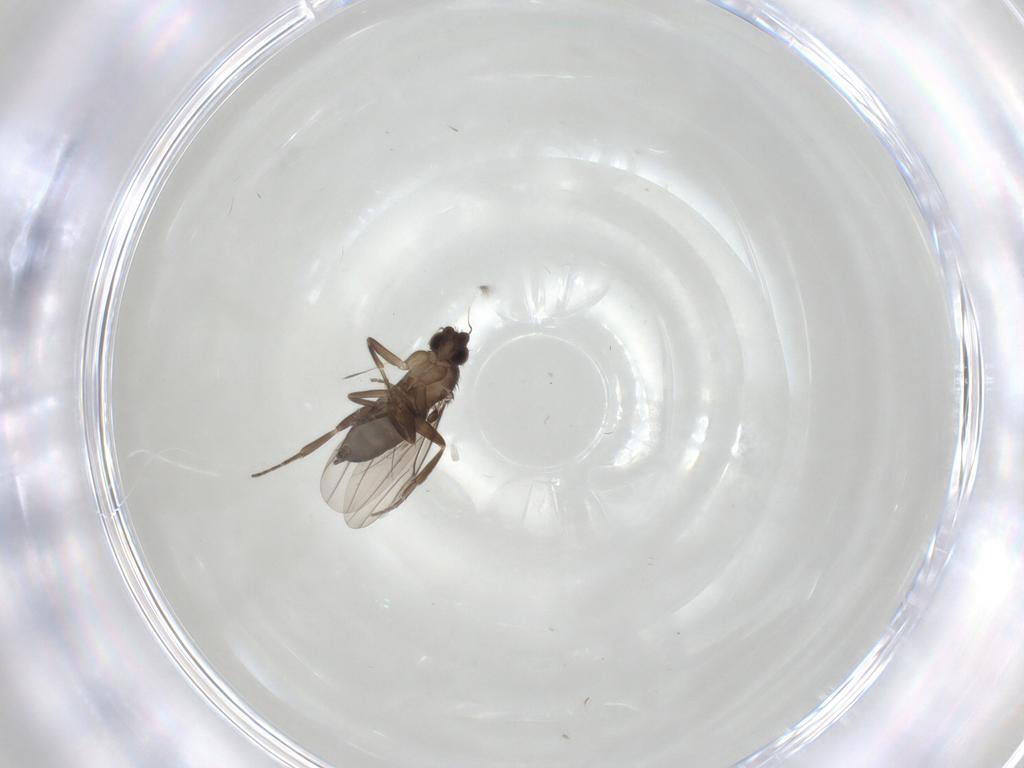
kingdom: Animalia
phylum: Arthropoda
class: Insecta
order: Diptera
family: Phoridae
